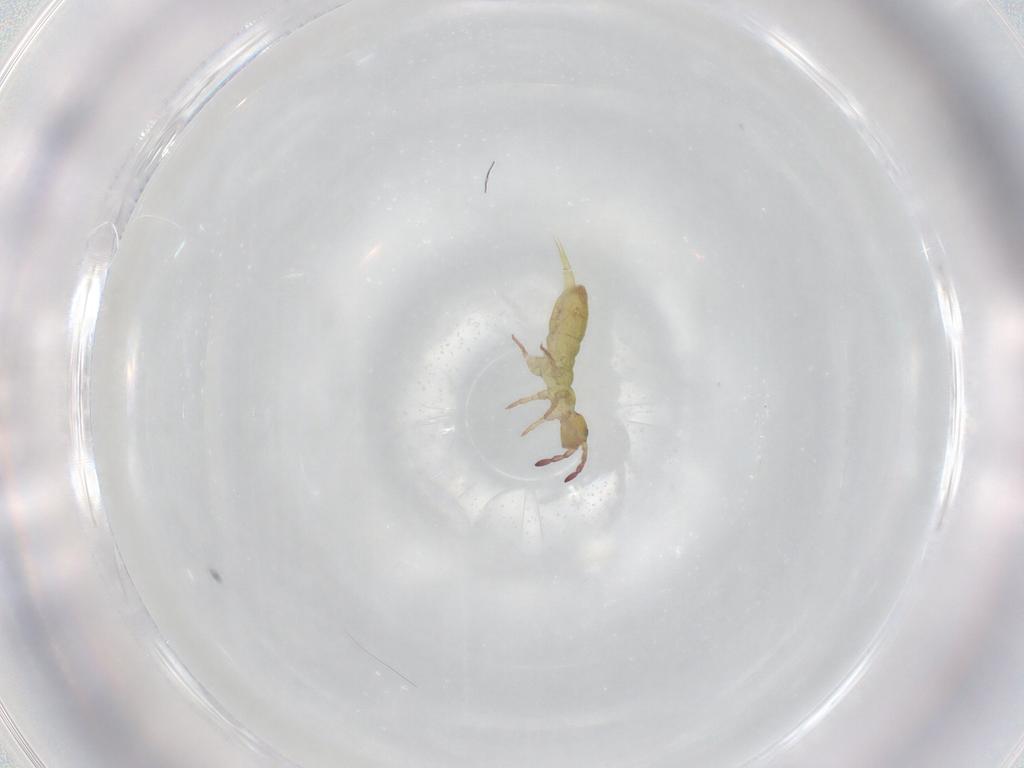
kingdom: Animalia
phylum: Arthropoda
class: Collembola
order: Entomobryomorpha
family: Isotomidae
